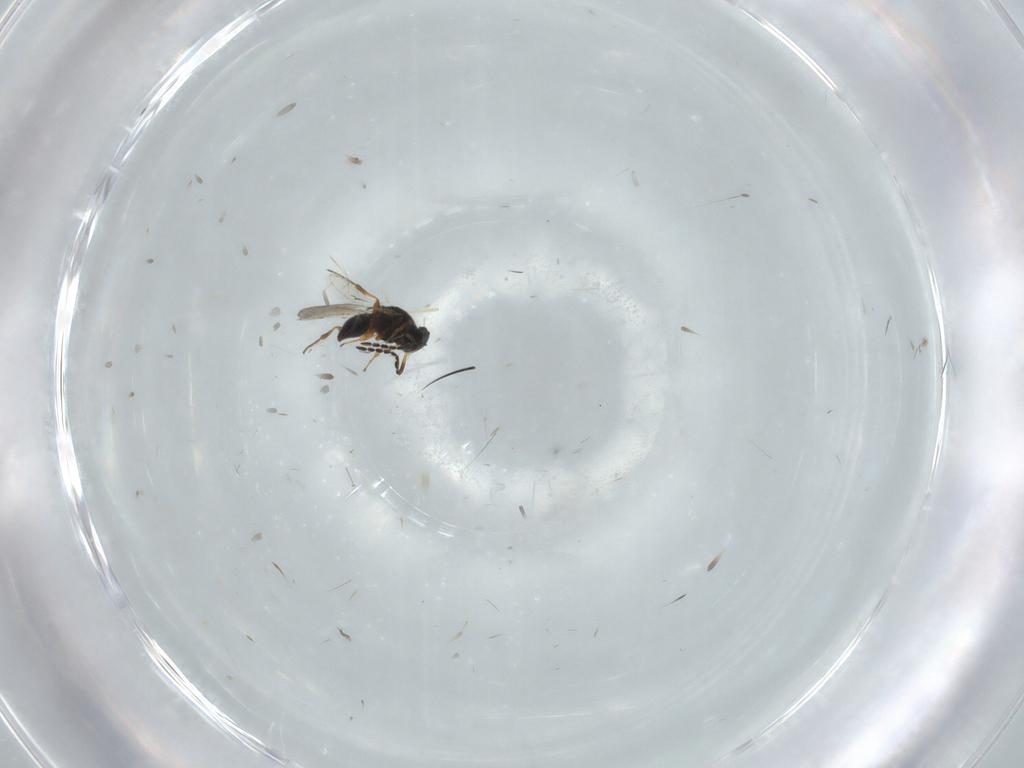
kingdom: Animalia
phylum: Arthropoda
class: Insecta
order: Hymenoptera
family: Platygastridae
